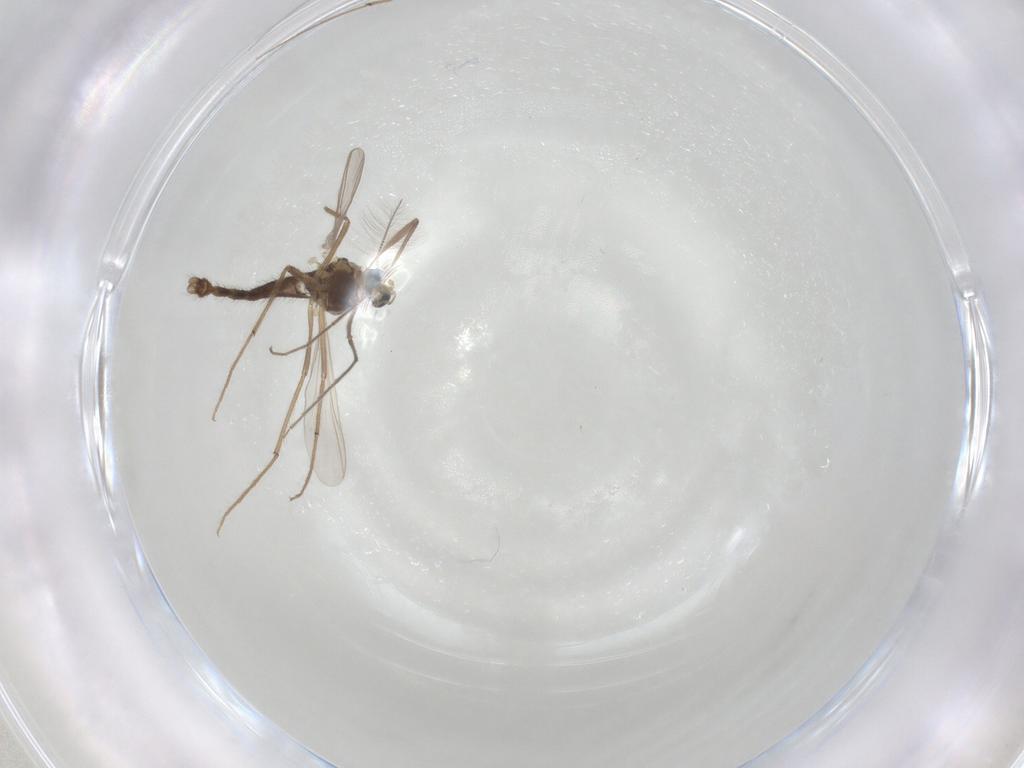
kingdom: Animalia
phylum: Arthropoda
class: Insecta
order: Diptera
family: Chironomidae
